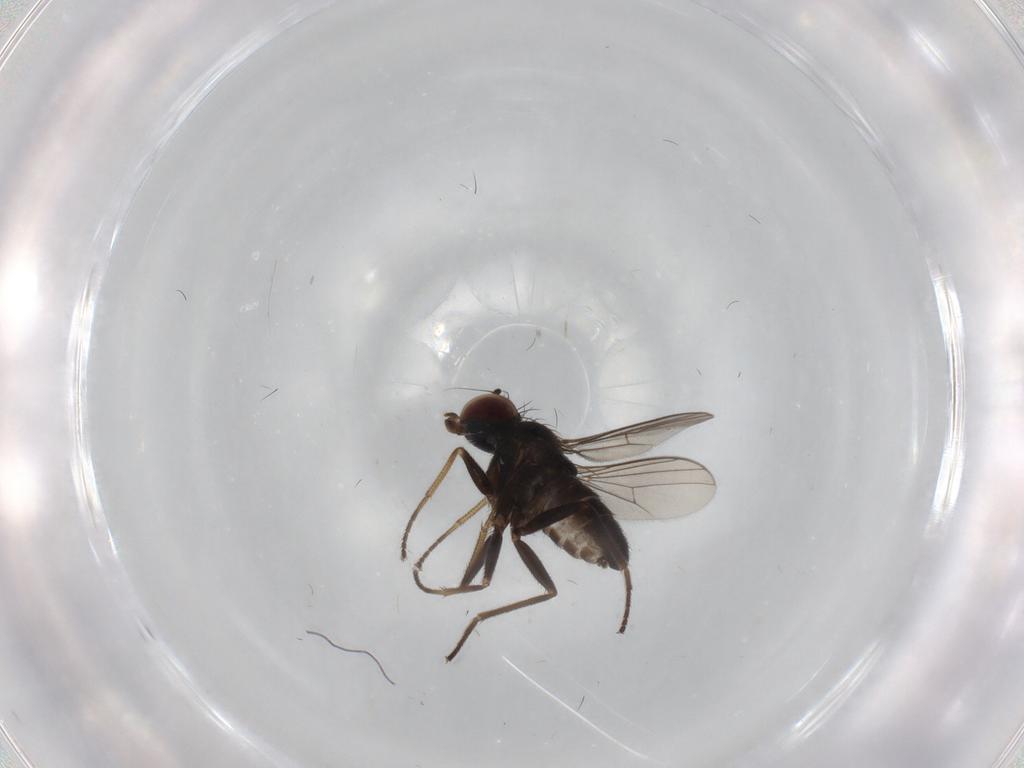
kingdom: Animalia
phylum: Arthropoda
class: Insecta
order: Diptera
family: Dolichopodidae
